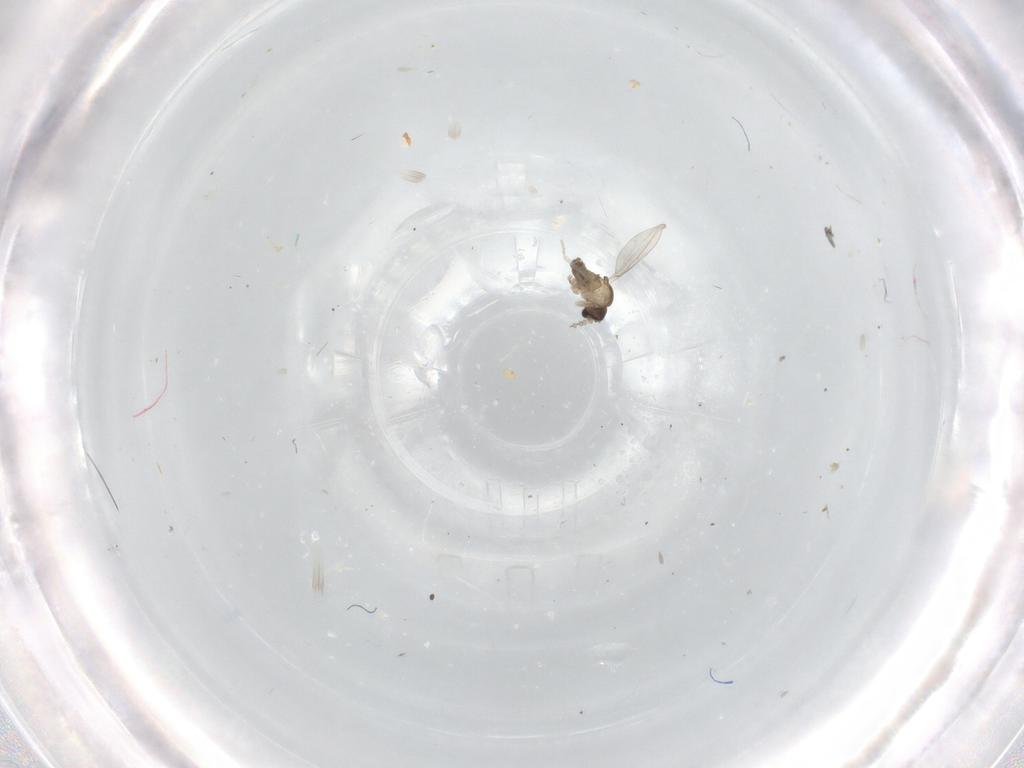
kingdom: Animalia
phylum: Arthropoda
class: Insecta
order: Diptera
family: Cecidomyiidae
